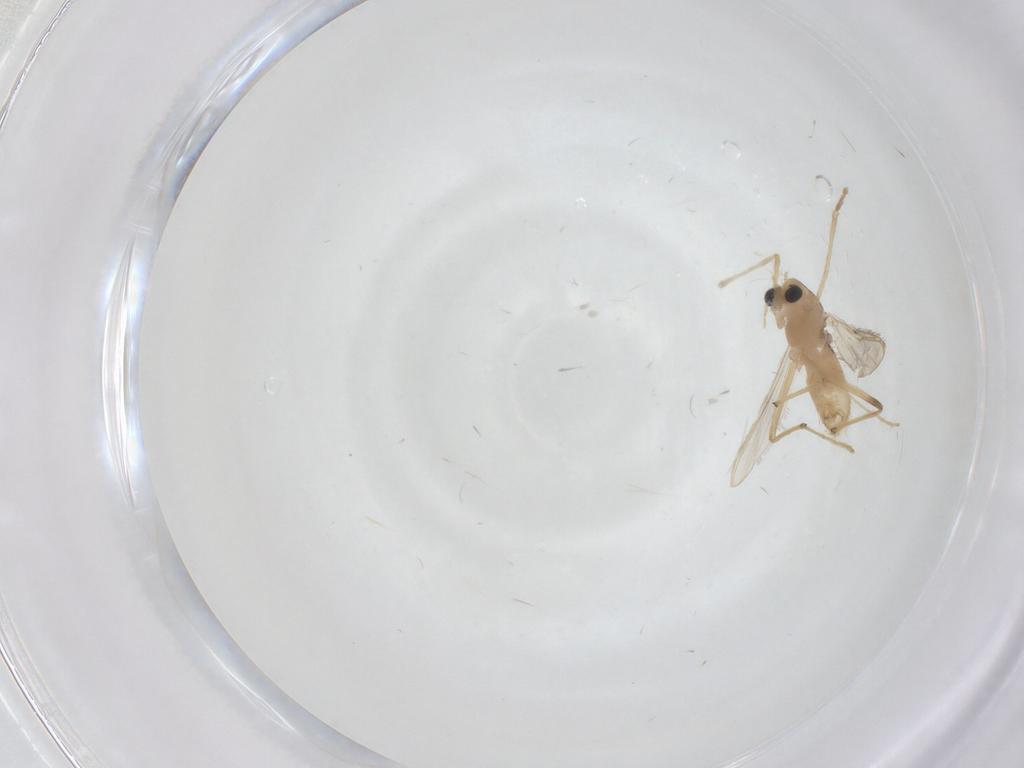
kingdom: Animalia
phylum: Arthropoda
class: Insecta
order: Diptera
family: Chironomidae
